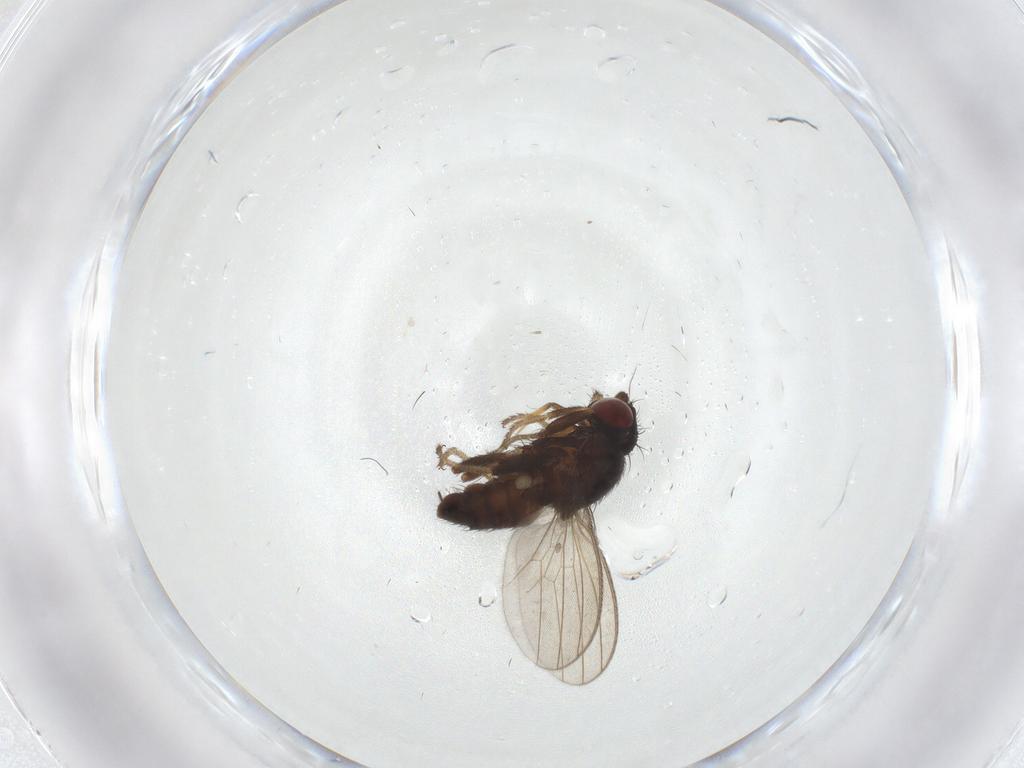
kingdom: Animalia
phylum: Arthropoda
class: Insecta
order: Diptera
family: Milichiidae
